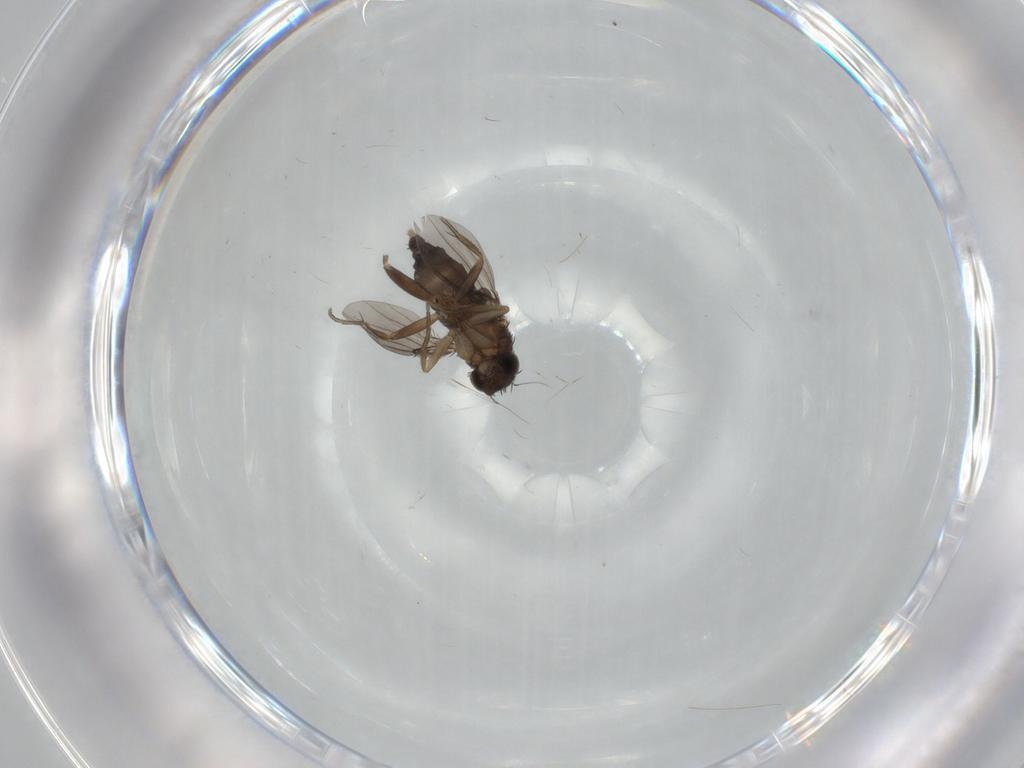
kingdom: Animalia
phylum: Arthropoda
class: Insecta
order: Diptera
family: Phoridae
